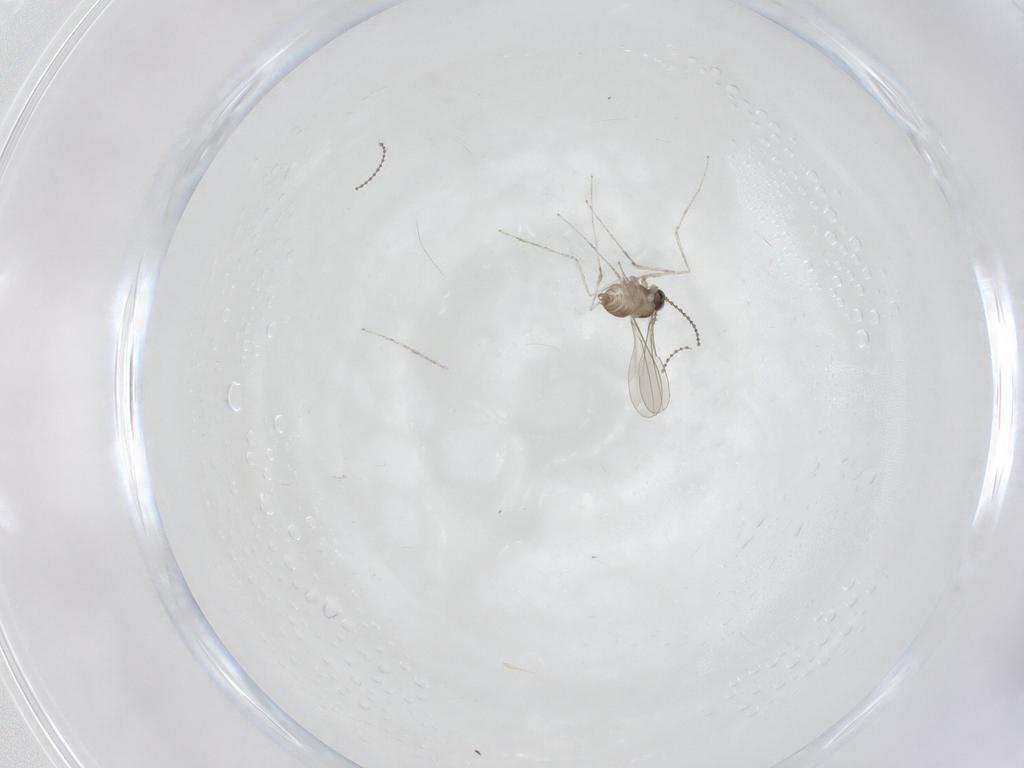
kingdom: Animalia
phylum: Arthropoda
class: Insecta
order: Diptera
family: Cecidomyiidae
